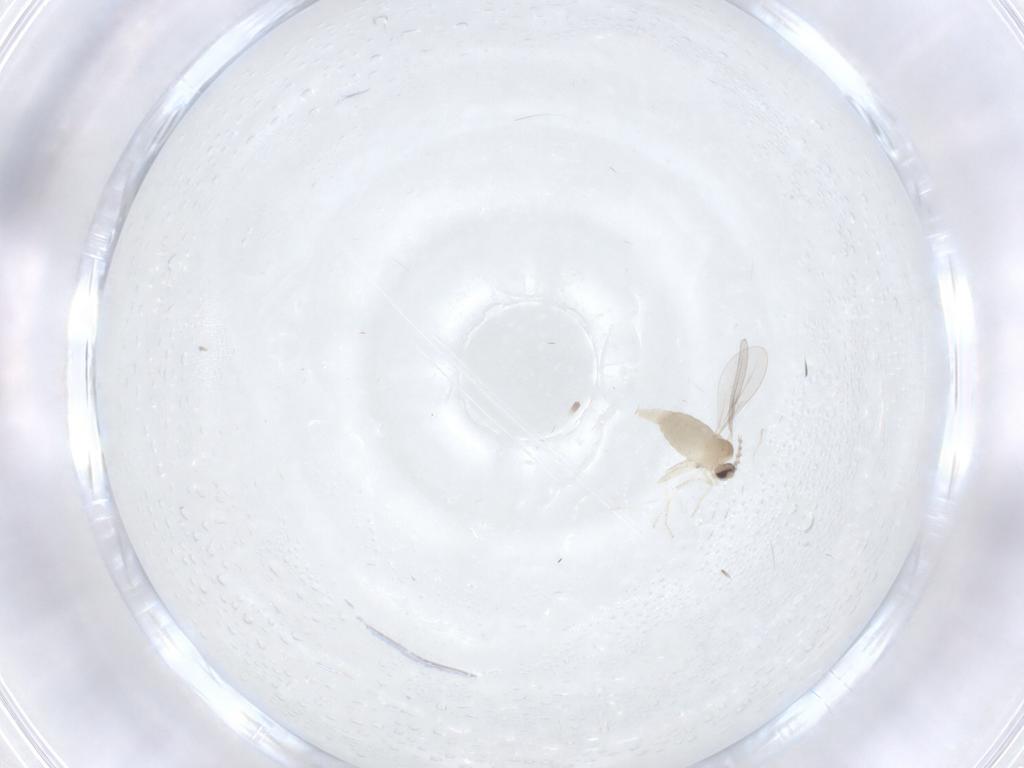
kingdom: Animalia
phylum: Arthropoda
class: Insecta
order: Diptera
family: Cecidomyiidae
